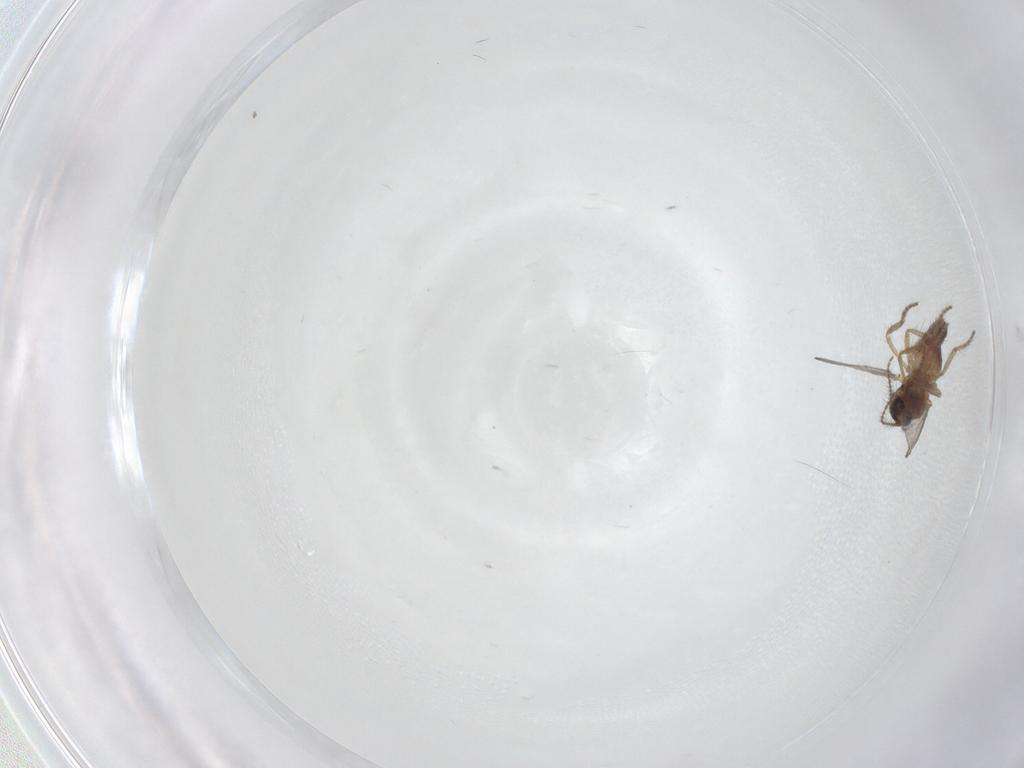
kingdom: Animalia
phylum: Arthropoda
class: Insecta
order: Diptera
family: Ceratopogonidae
